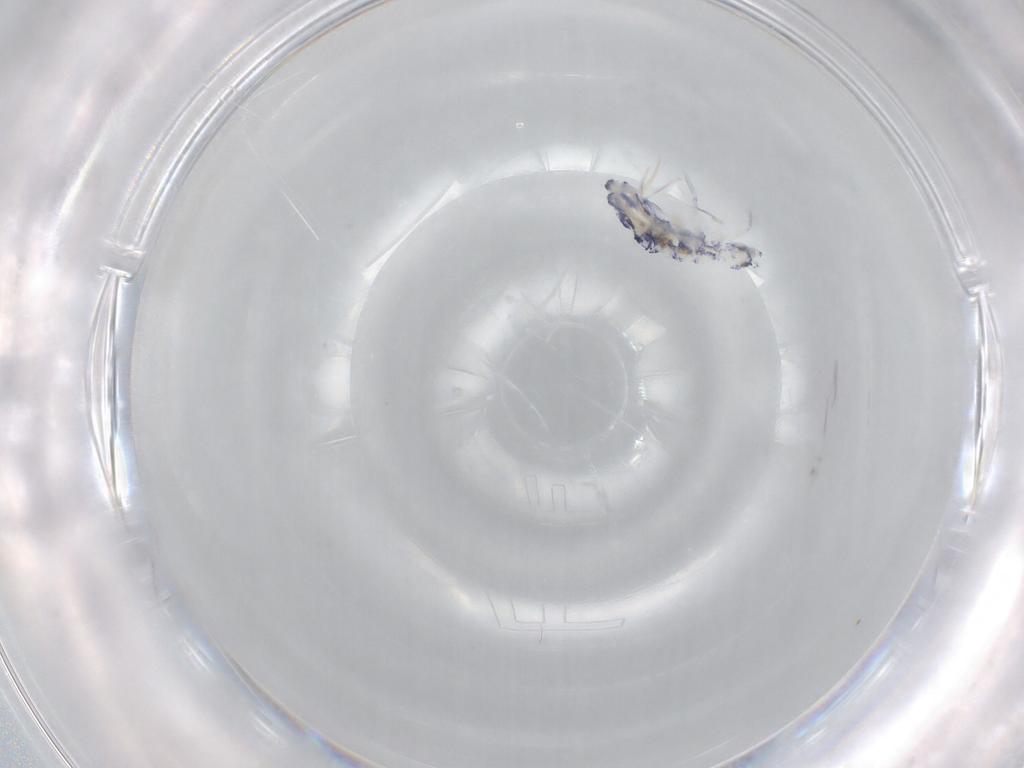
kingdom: Animalia
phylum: Arthropoda
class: Collembola
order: Entomobryomorpha
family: Entomobryidae
